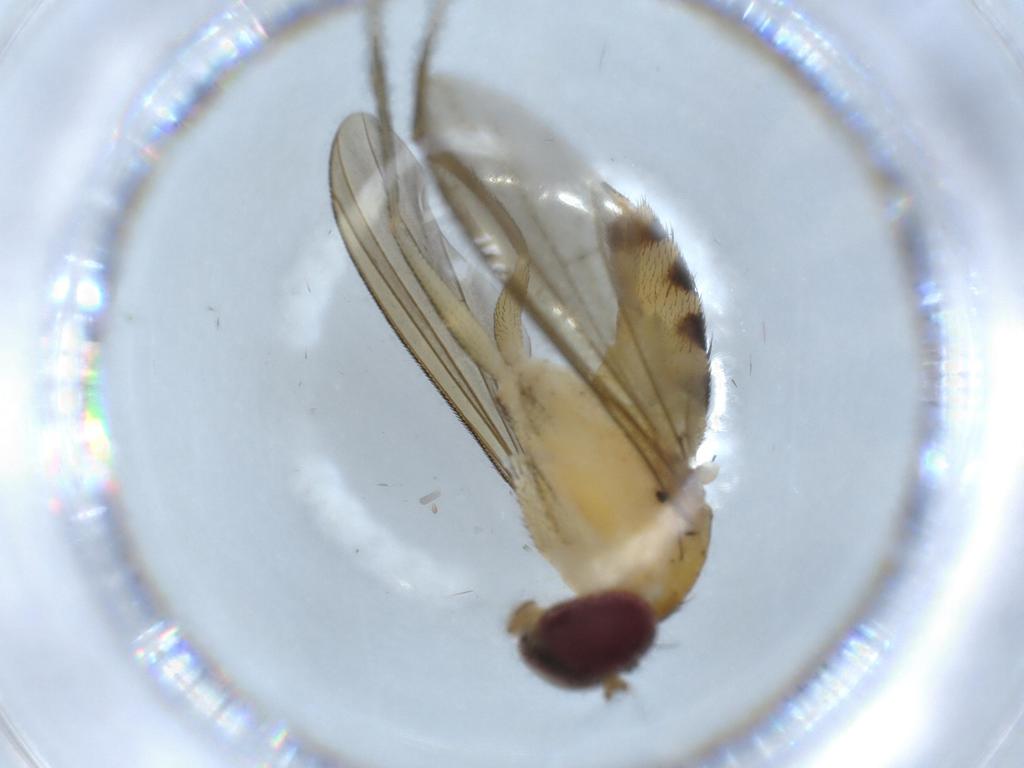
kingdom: Animalia
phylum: Arthropoda
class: Insecta
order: Diptera
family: Dolichopodidae
